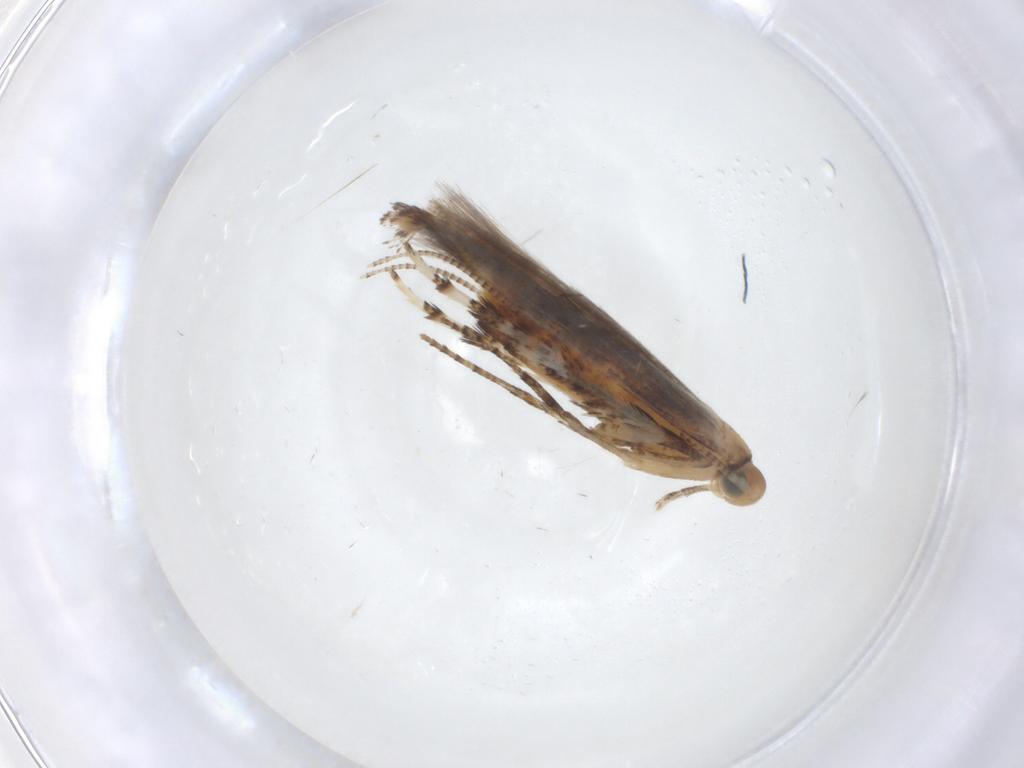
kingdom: Animalia
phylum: Arthropoda
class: Insecta
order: Lepidoptera
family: Gracillariidae
